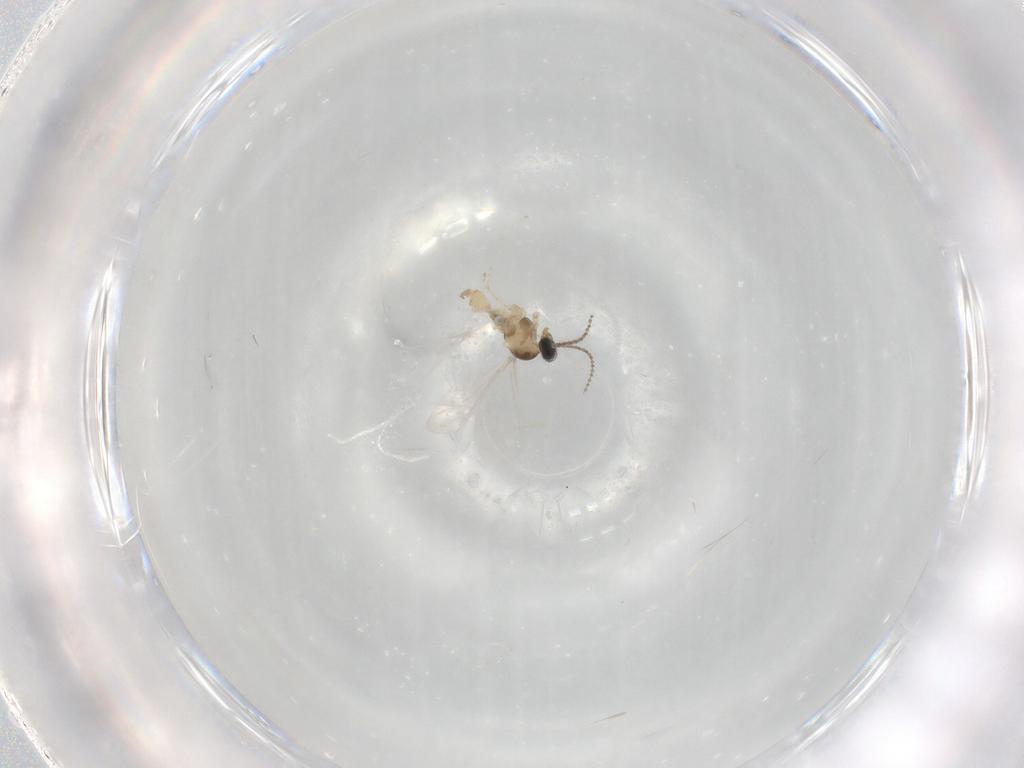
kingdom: Animalia
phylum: Arthropoda
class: Insecta
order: Diptera
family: Cecidomyiidae
